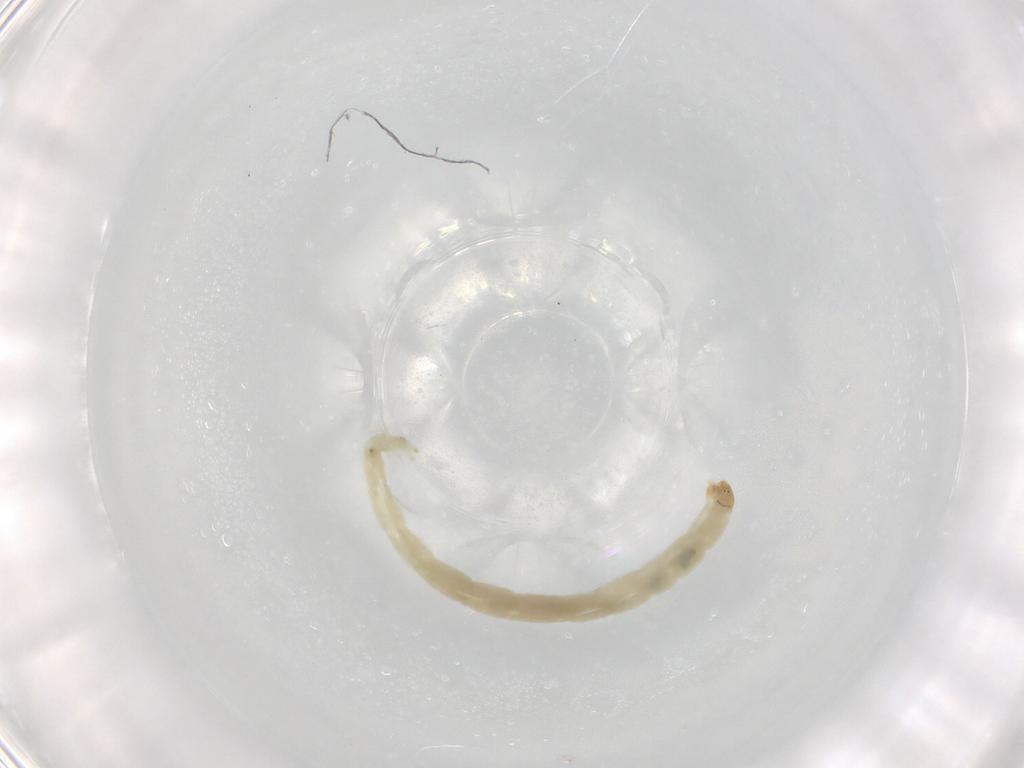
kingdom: Animalia
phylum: Arthropoda
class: Insecta
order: Diptera
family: Chironomidae
